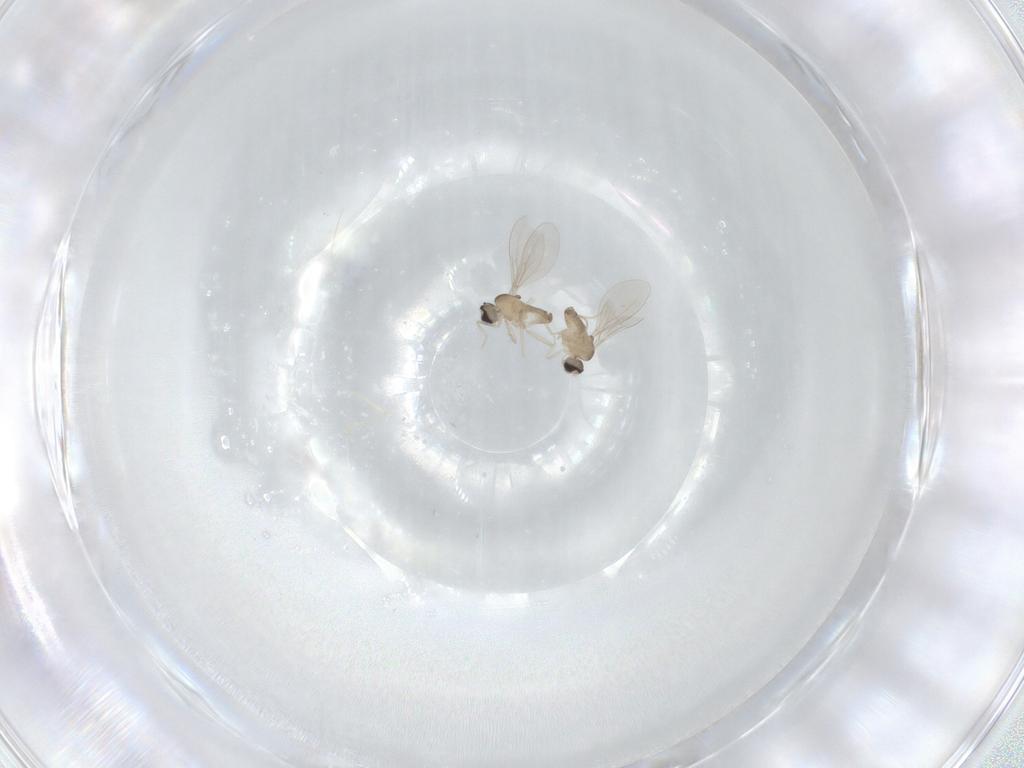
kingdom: Animalia
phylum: Arthropoda
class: Insecta
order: Diptera
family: Cecidomyiidae
